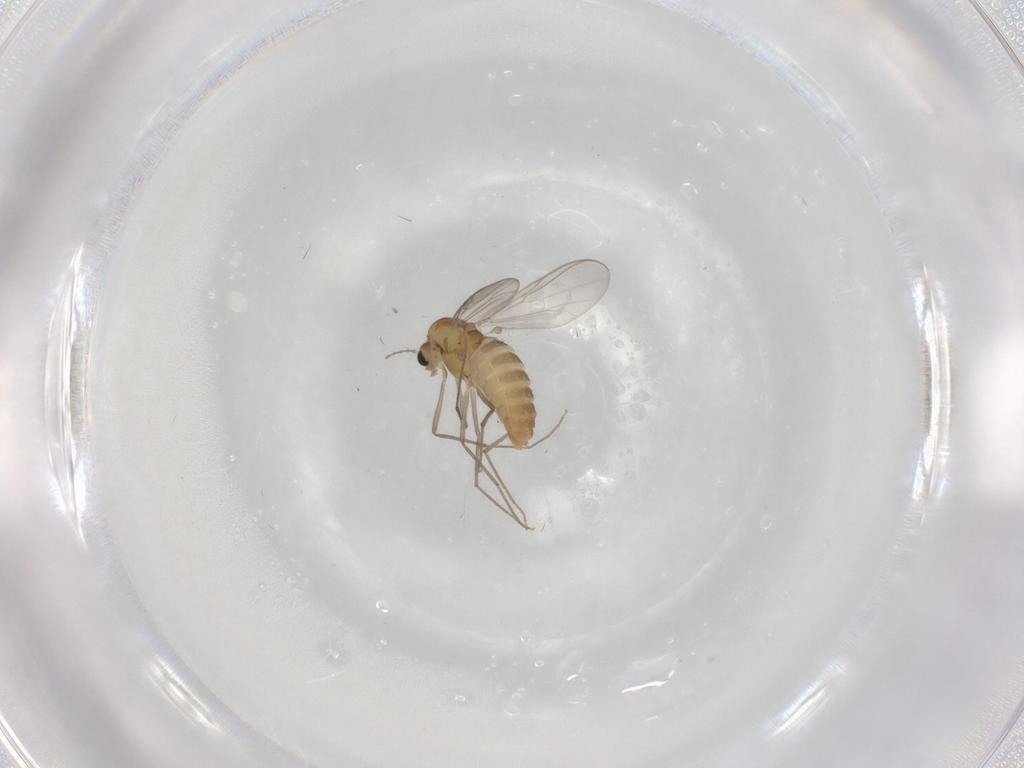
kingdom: Animalia
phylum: Arthropoda
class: Insecta
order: Diptera
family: Chironomidae
